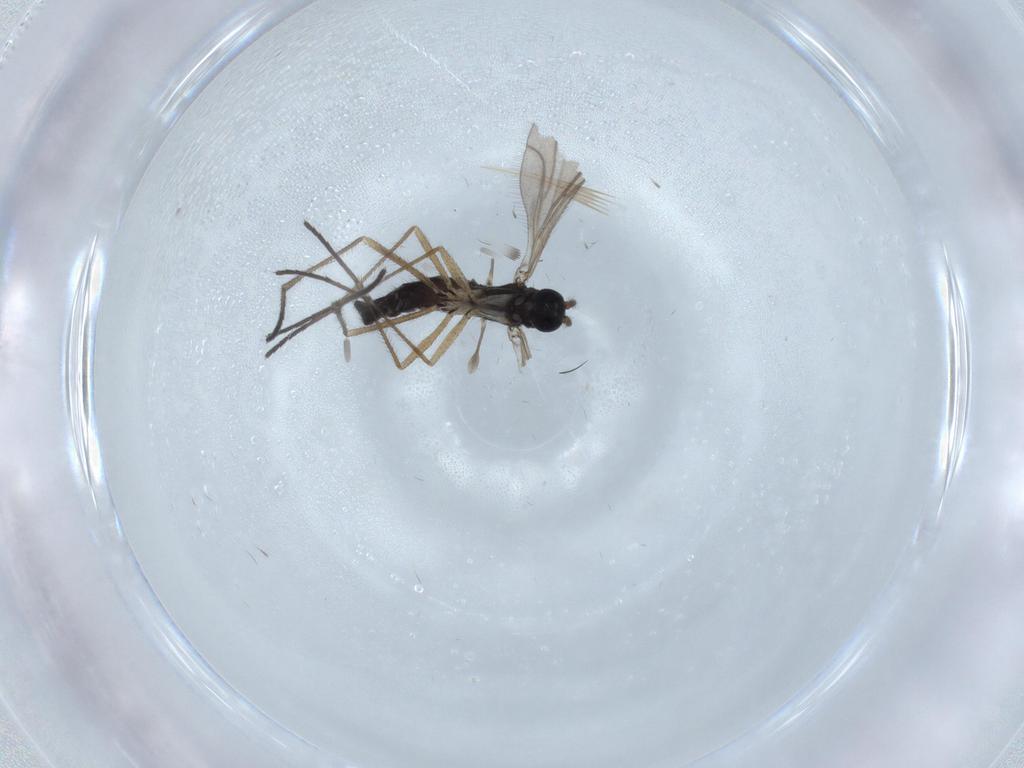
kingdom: Animalia
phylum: Arthropoda
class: Insecta
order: Diptera
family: Sciaridae
